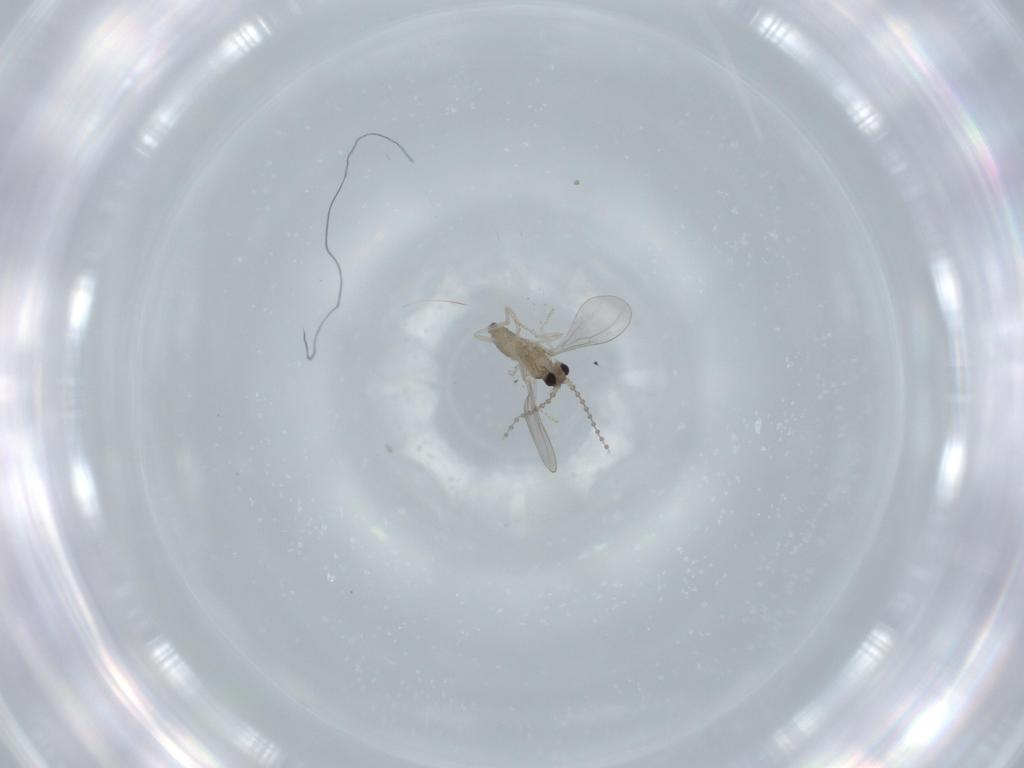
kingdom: Animalia
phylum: Arthropoda
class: Insecta
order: Diptera
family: Cecidomyiidae
